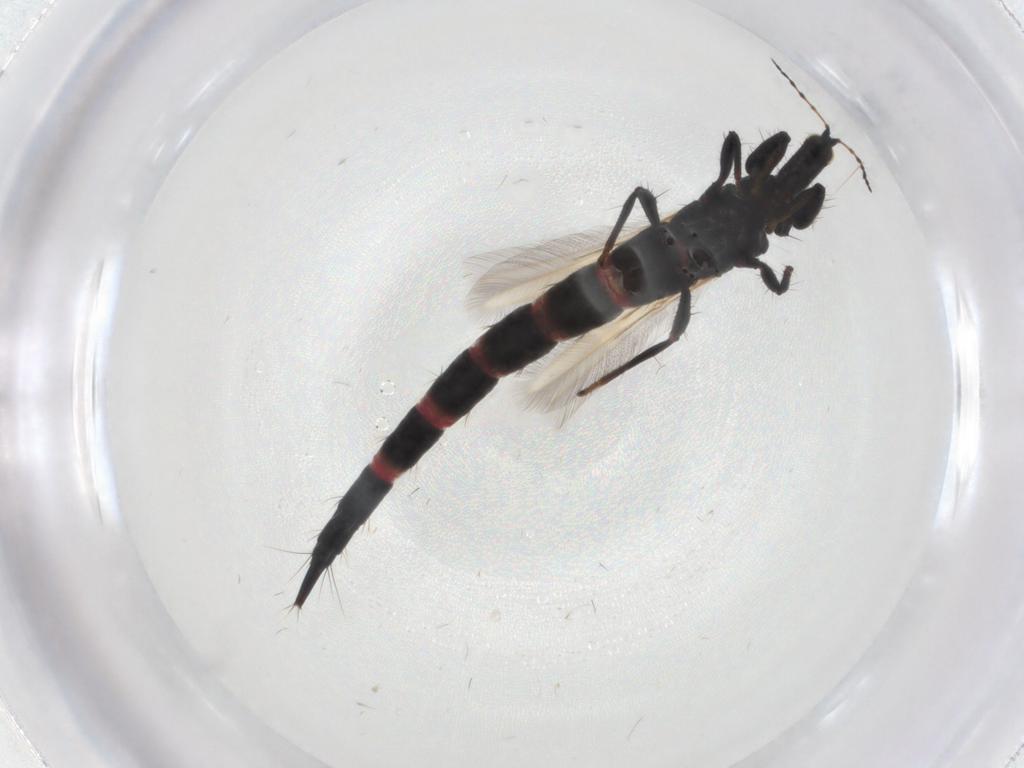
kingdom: Animalia
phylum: Arthropoda
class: Insecta
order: Thysanoptera
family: Phlaeothripidae
